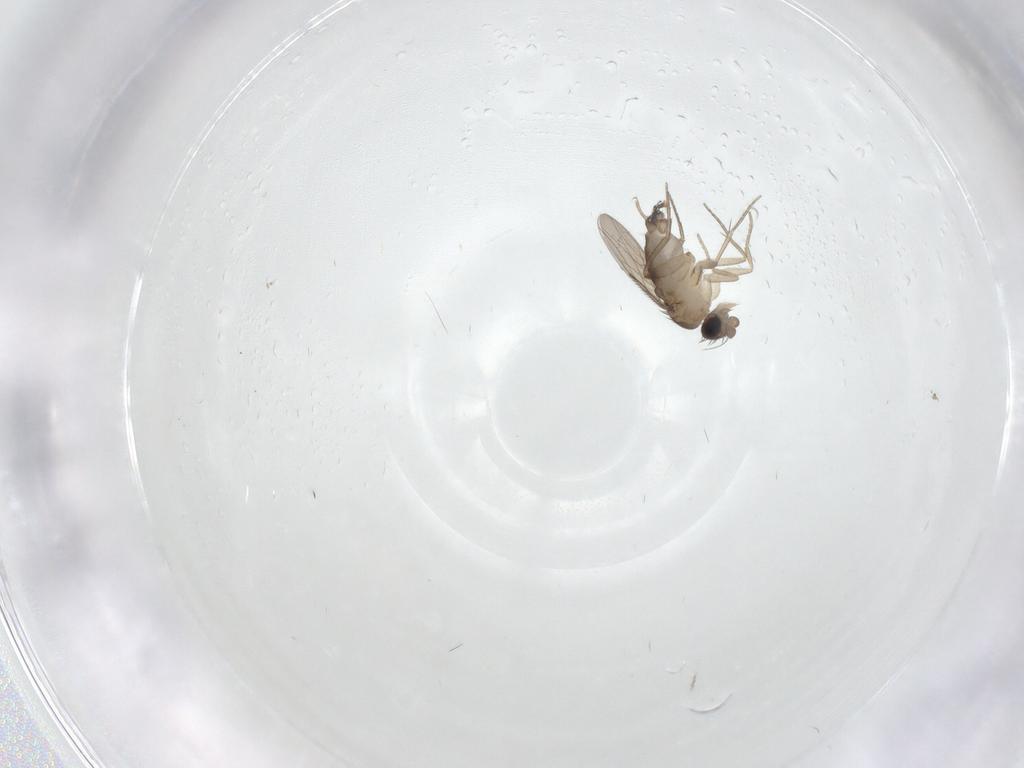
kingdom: Animalia
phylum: Arthropoda
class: Insecta
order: Diptera
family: Phoridae
